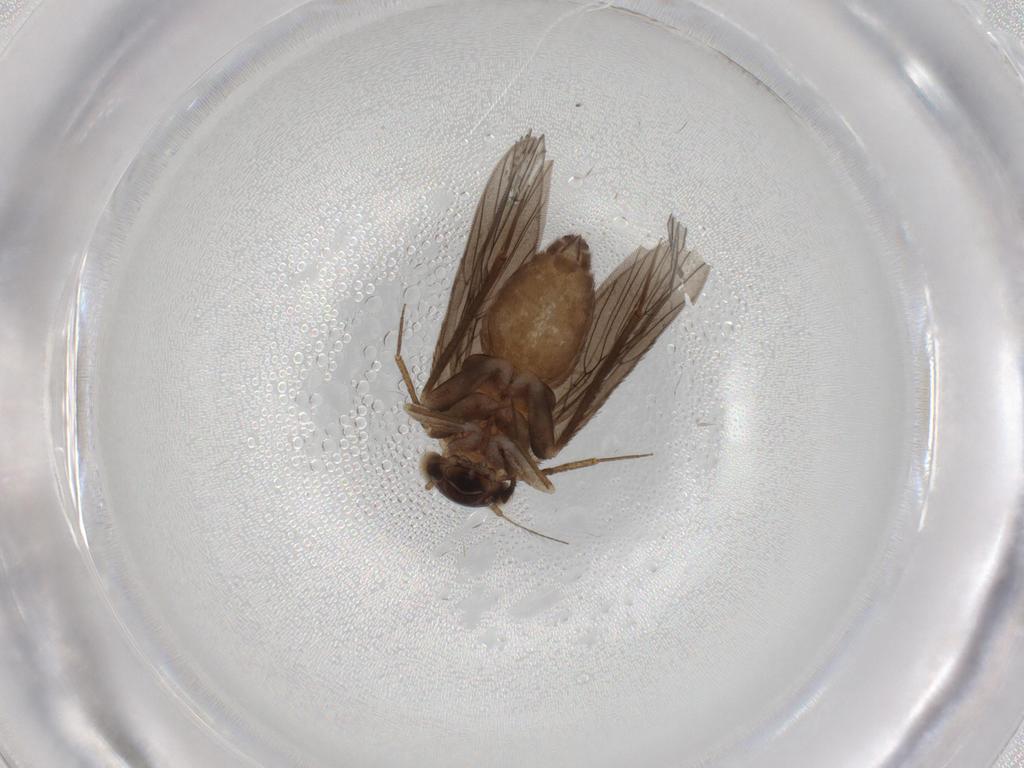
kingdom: Animalia
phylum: Arthropoda
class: Insecta
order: Psocodea
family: Lepidopsocidae
